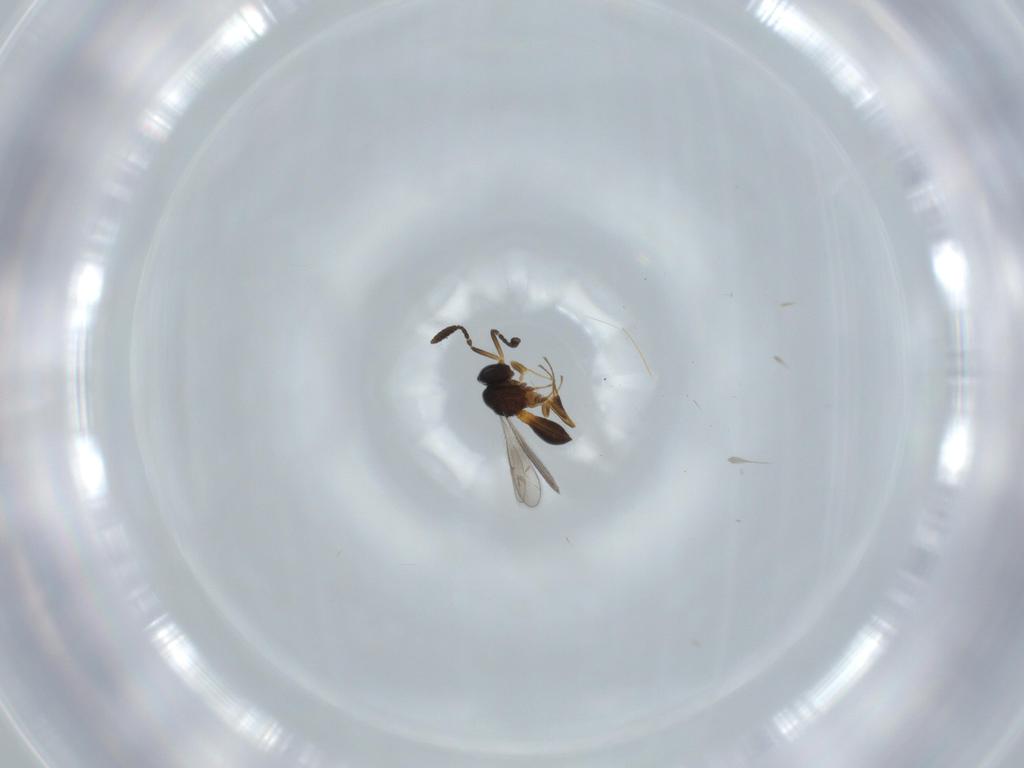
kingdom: Animalia
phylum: Arthropoda
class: Insecta
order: Hymenoptera
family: Scelionidae
